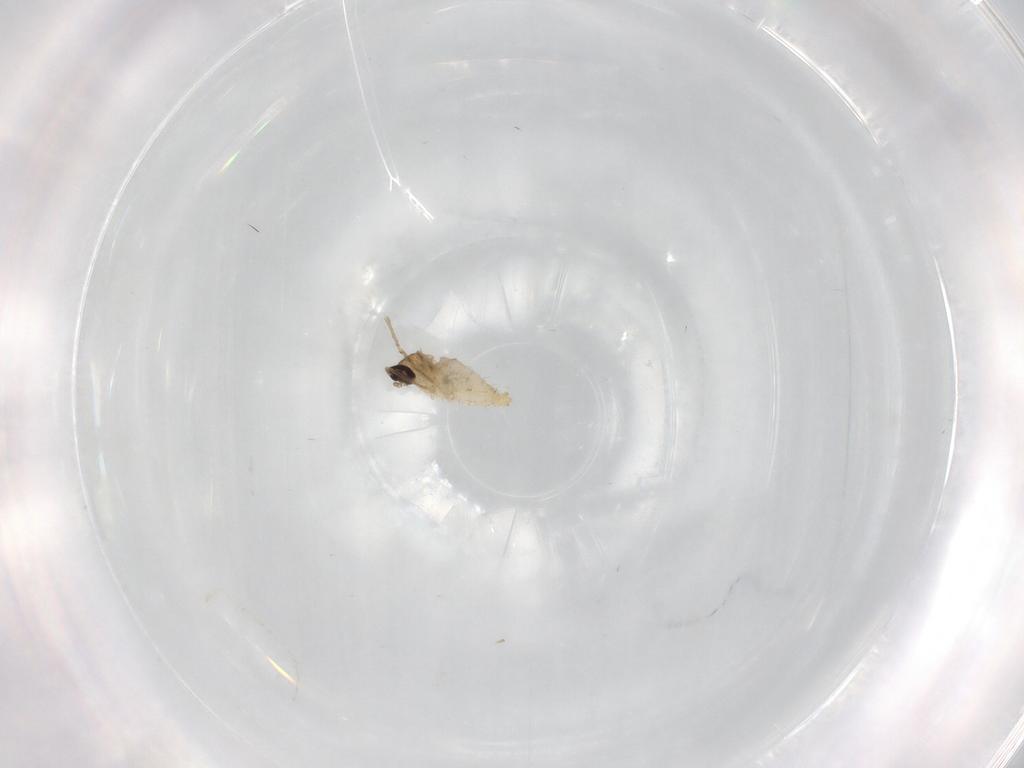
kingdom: Animalia
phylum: Arthropoda
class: Insecta
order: Diptera
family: Cecidomyiidae
